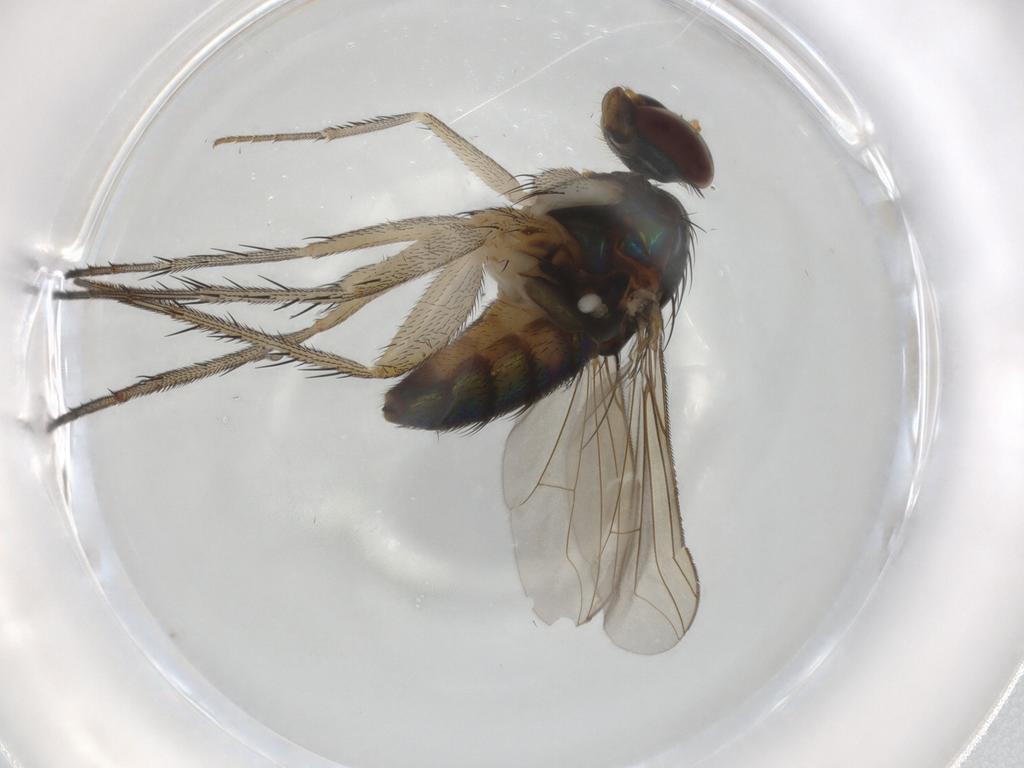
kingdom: Animalia
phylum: Arthropoda
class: Insecta
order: Diptera
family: Dolichopodidae
